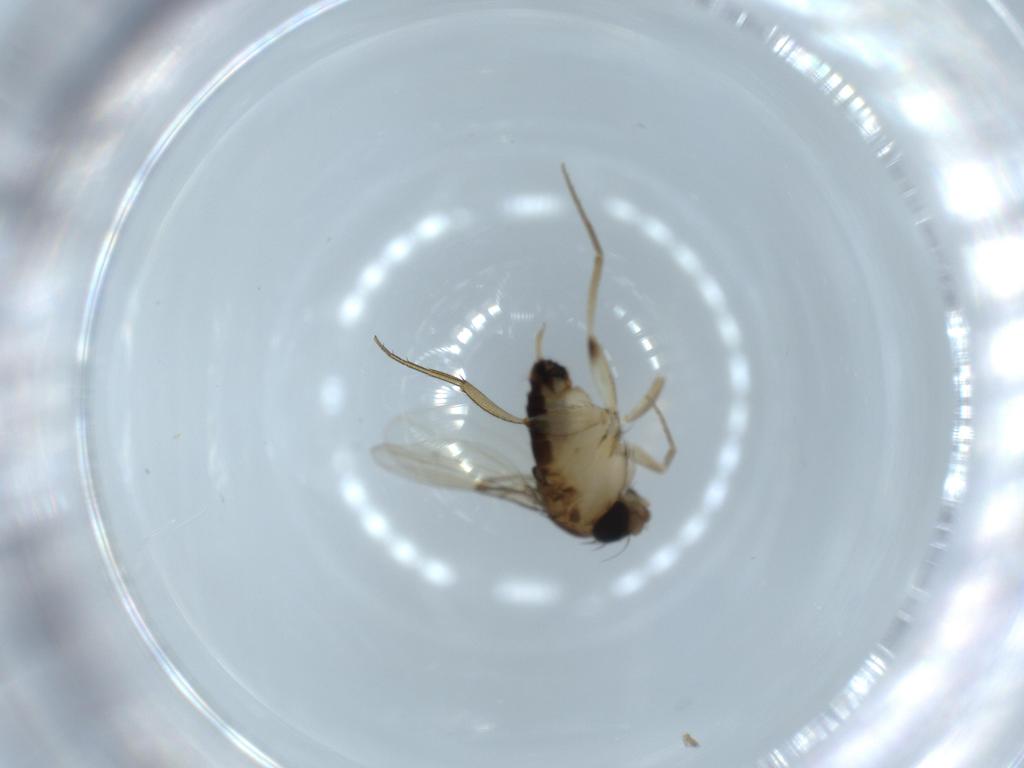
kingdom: Animalia
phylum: Arthropoda
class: Insecta
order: Diptera
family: Phoridae
